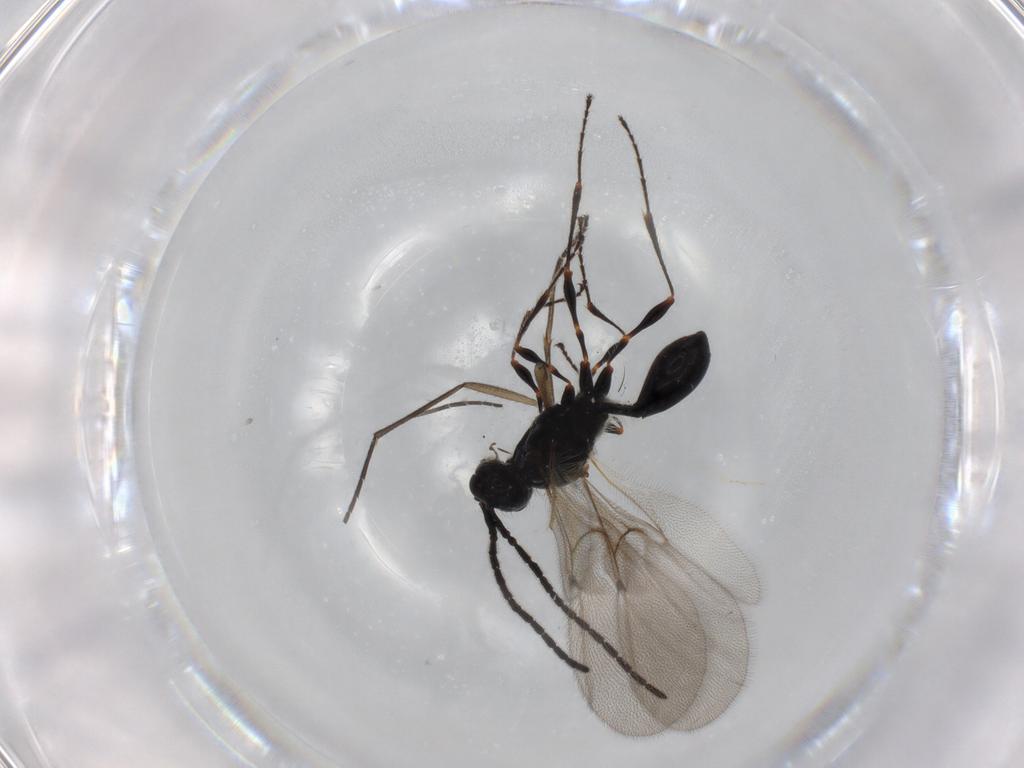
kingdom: Animalia
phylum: Arthropoda
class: Insecta
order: Hymenoptera
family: Diapriidae
